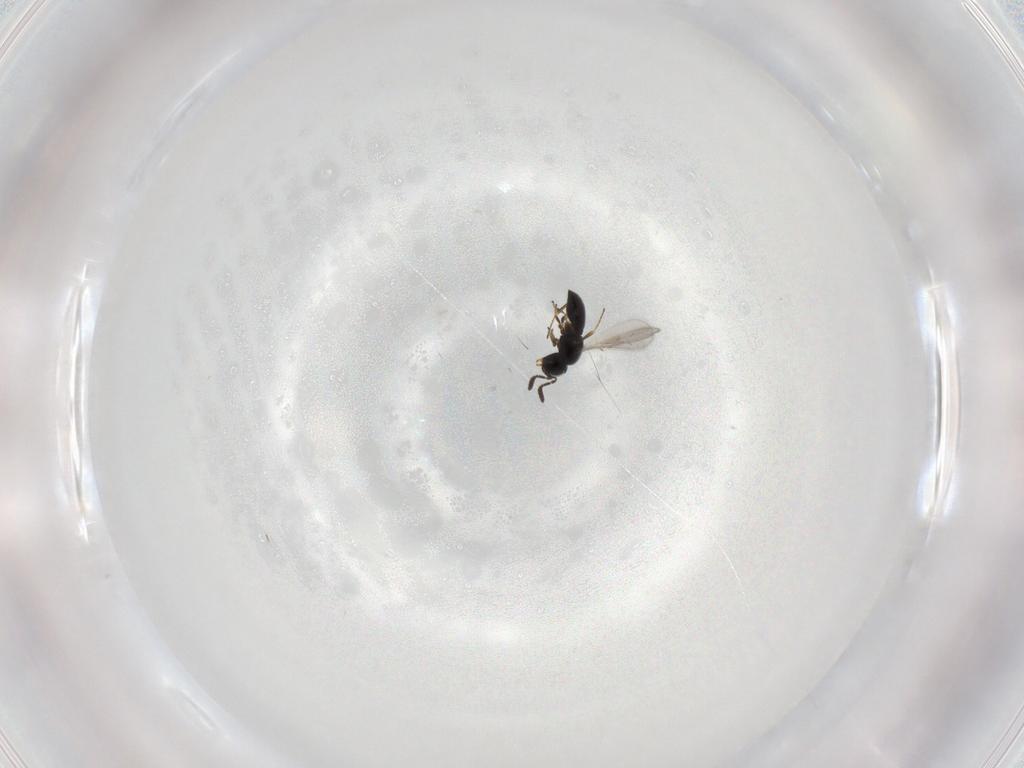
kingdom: Animalia
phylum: Arthropoda
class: Insecta
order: Hymenoptera
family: Scelionidae
